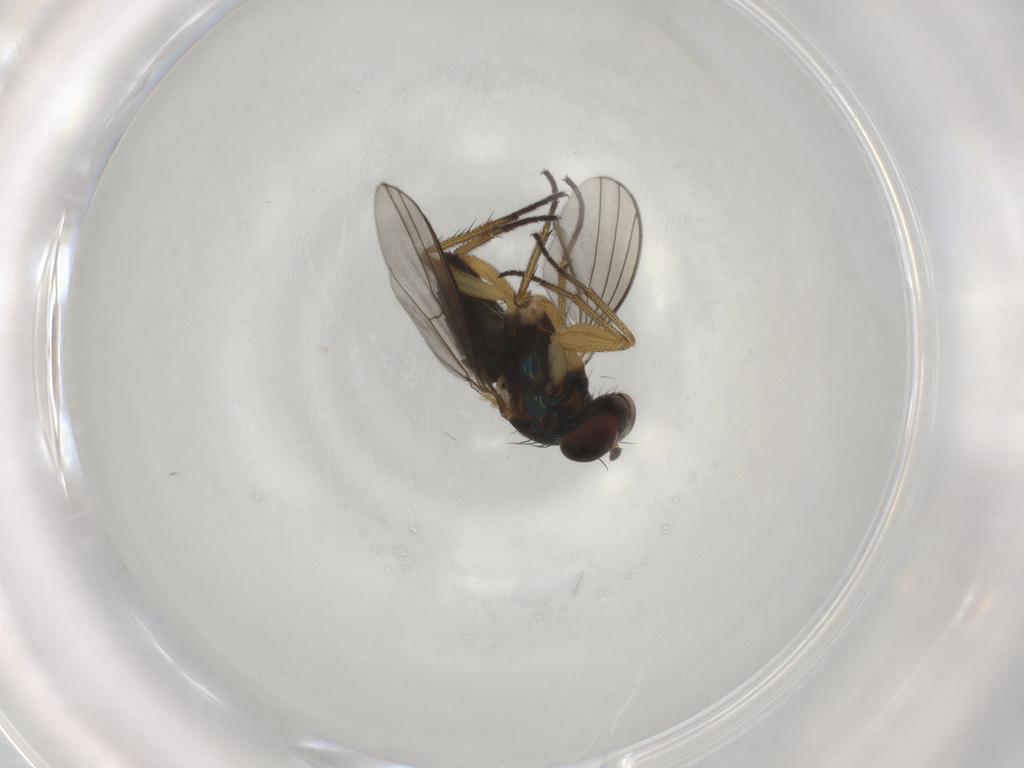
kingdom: Animalia
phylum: Arthropoda
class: Insecta
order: Diptera
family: Dolichopodidae
